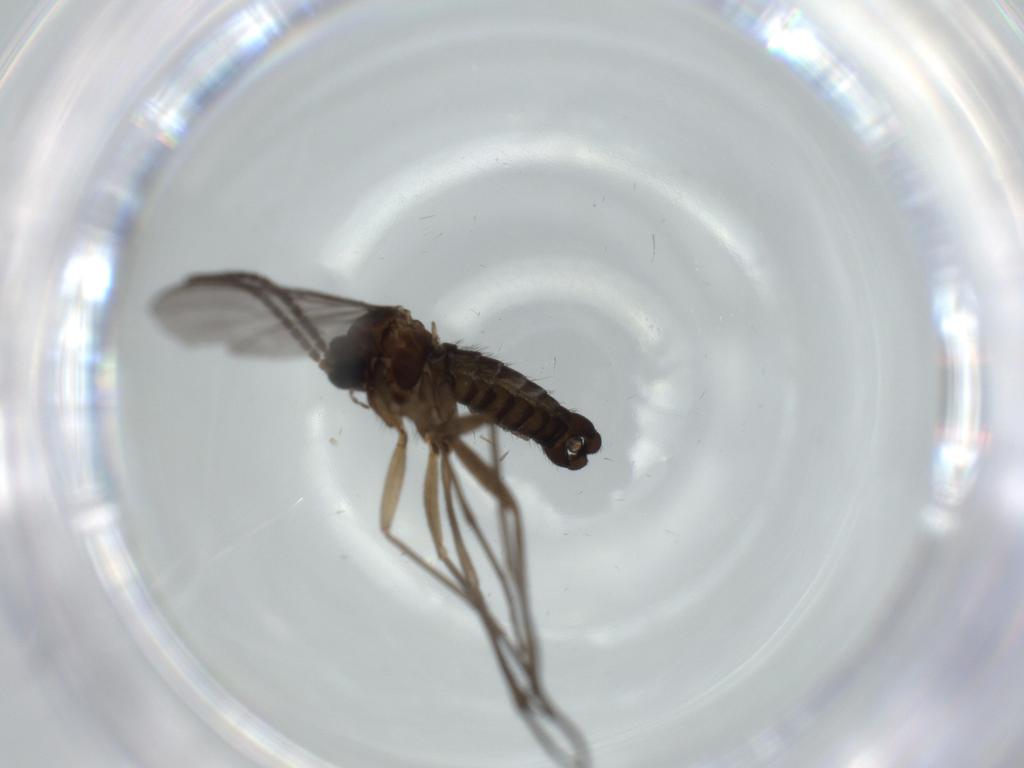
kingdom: Animalia
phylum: Arthropoda
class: Insecta
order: Diptera
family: Sciaridae
